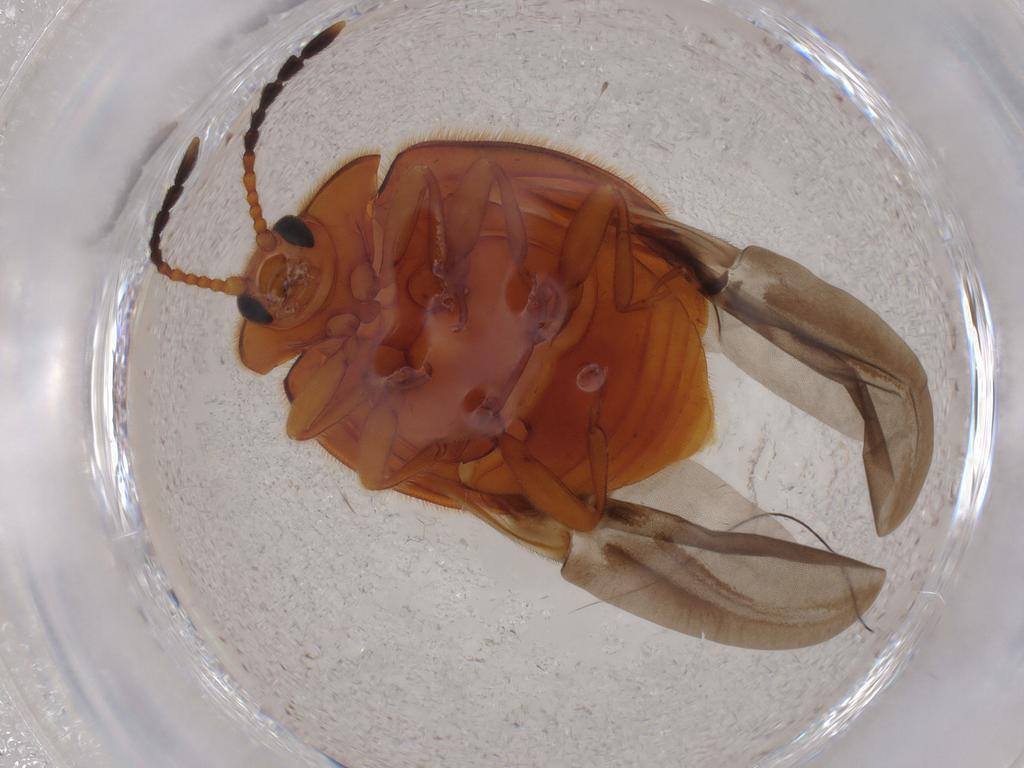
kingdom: Animalia
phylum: Arthropoda
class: Insecta
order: Coleoptera
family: Endomychidae
